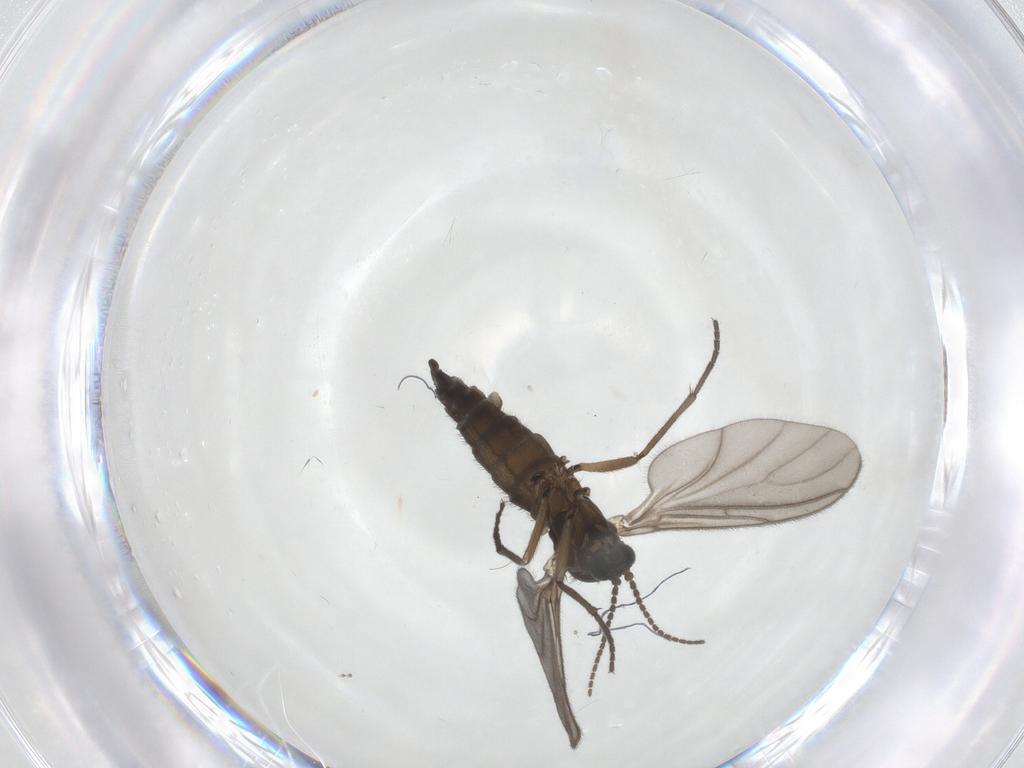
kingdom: Animalia
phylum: Arthropoda
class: Insecta
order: Diptera
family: Sciaridae
